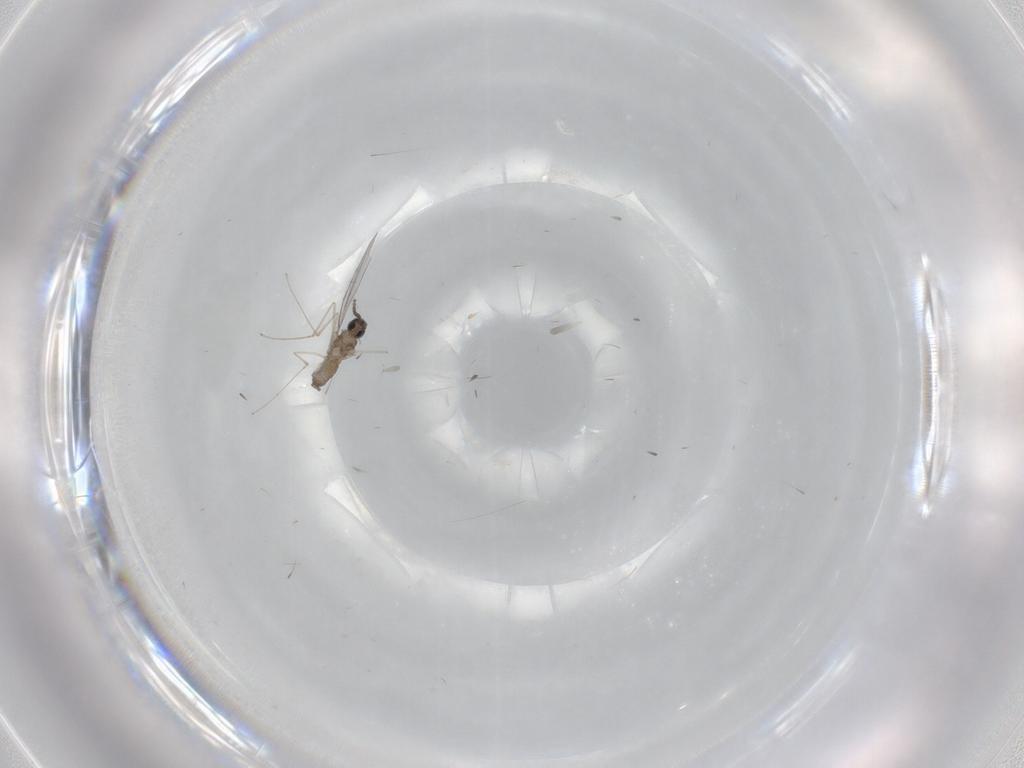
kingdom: Animalia
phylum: Arthropoda
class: Insecta
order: Diptera
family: Cecidomyiidae
